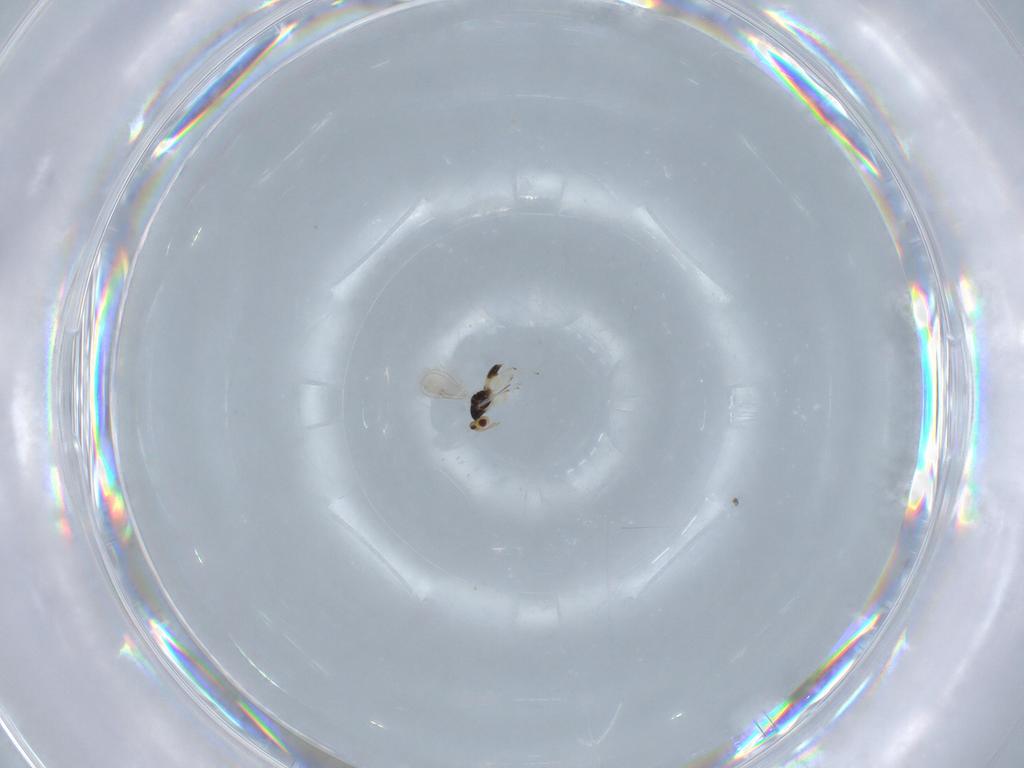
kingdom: Animalia
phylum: Arthropoda
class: Insecta
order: Hymenoptera
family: Eulophidae
